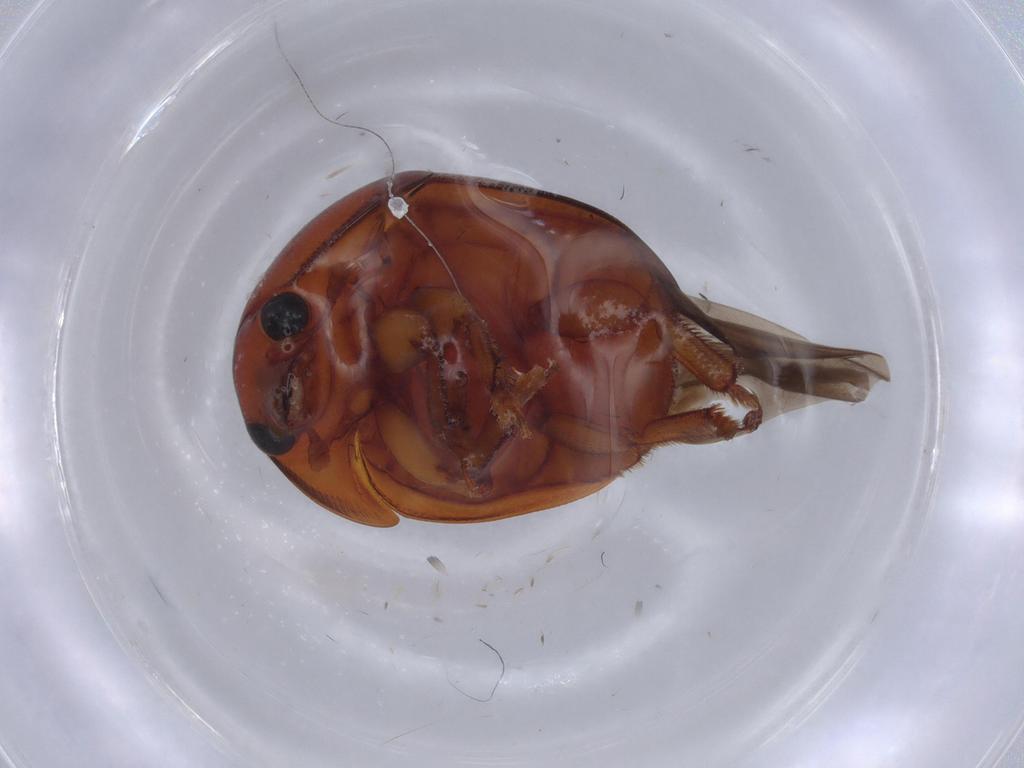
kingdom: Animalia
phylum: Arthropoda
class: Insecta
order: Coleoptera
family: Nitidulidae
